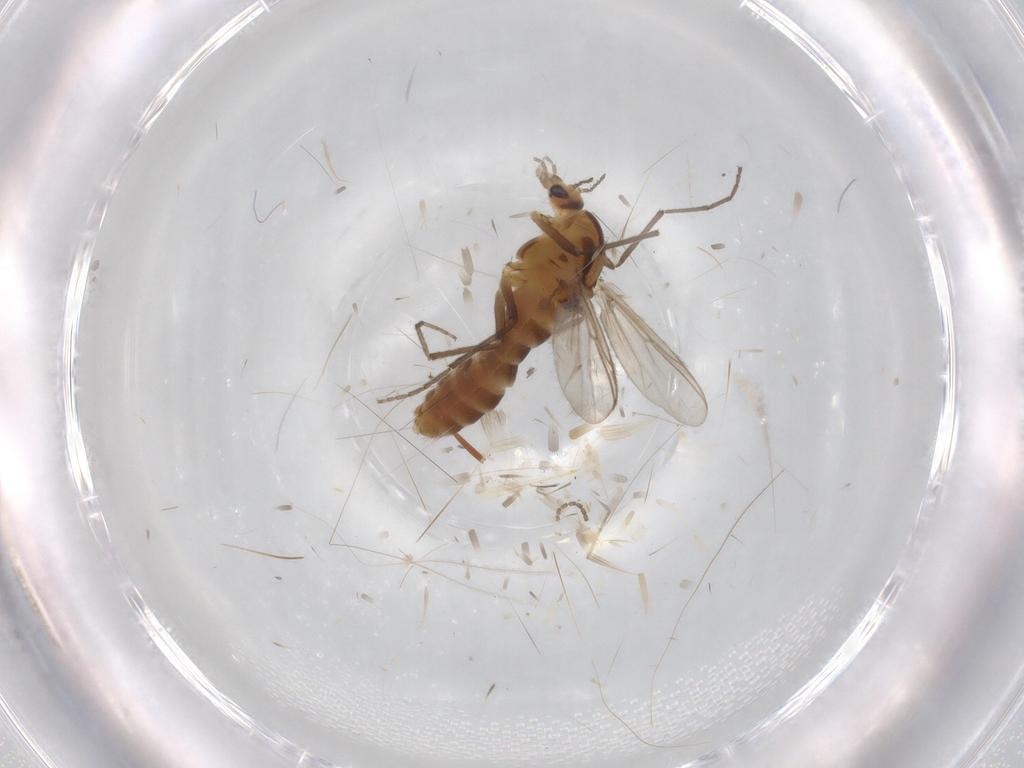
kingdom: Animalia
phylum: Arthropoda
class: Insecta
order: Diptera
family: Chironomidae
